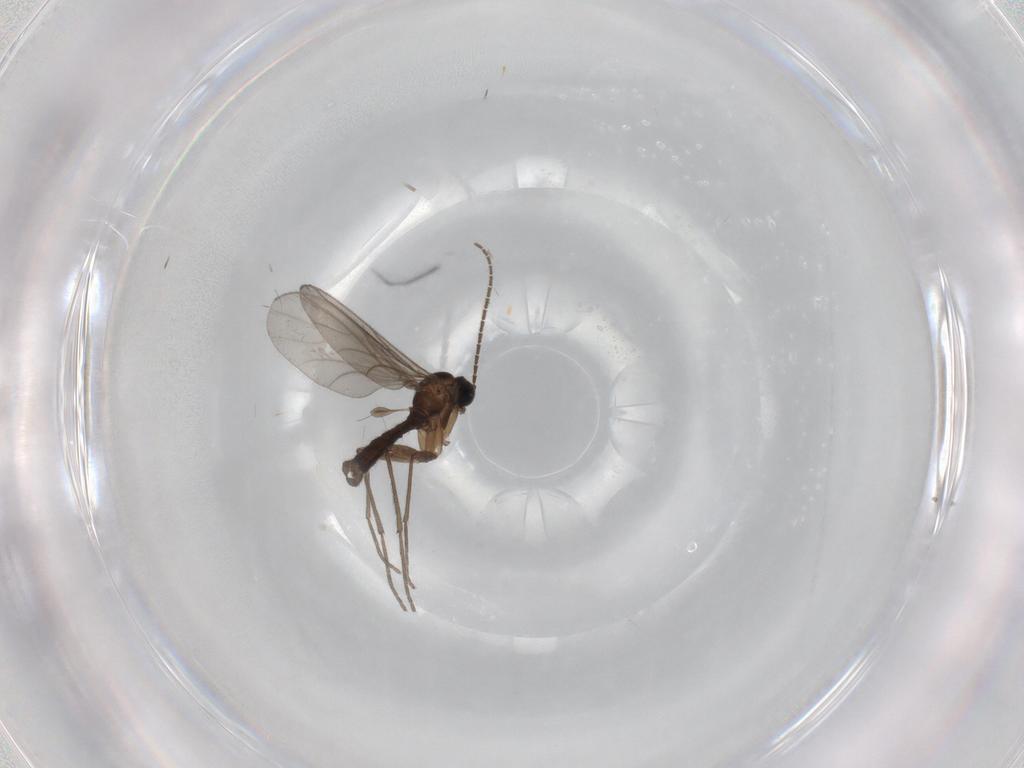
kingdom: Animalia
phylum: Arthropoda
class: Insecta
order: Diptera
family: Sciaridae
